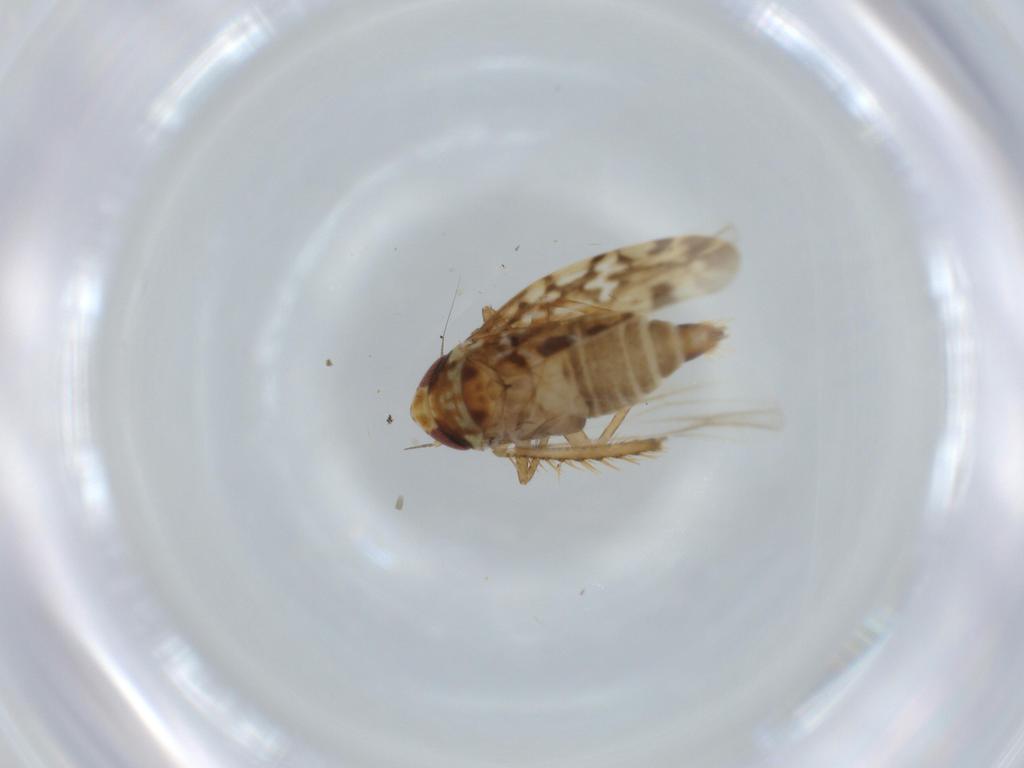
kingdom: Animalia
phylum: Arthropoda
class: Insecta
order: Hemiptera
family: Cicadellidae
